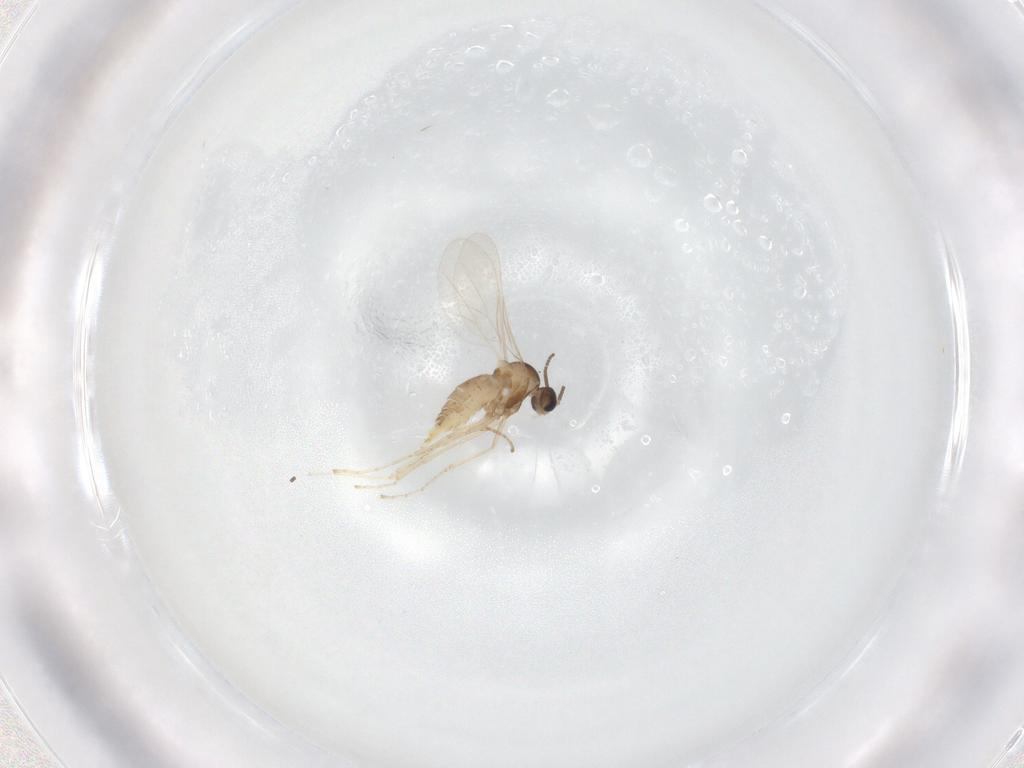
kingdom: Animalia
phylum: Arthropoda
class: Insecta
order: Diptera
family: Cecidomyiidae
